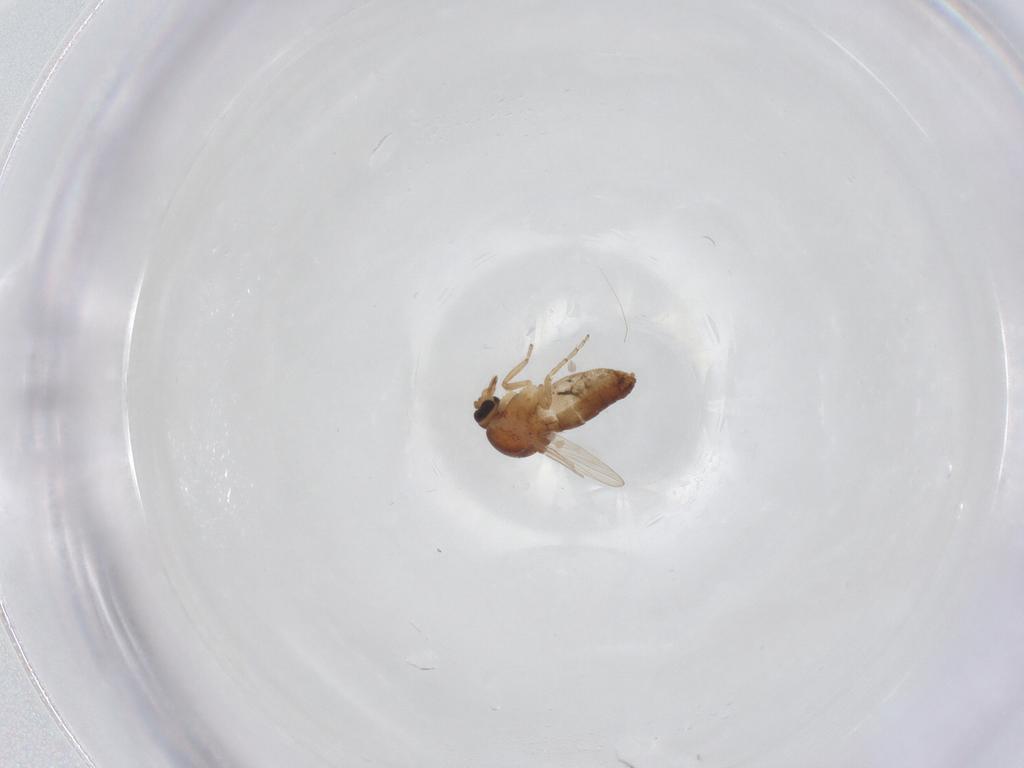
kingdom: Animalia
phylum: Arthropoda
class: Insecta
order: Diptera
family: Ceratopogonidae
